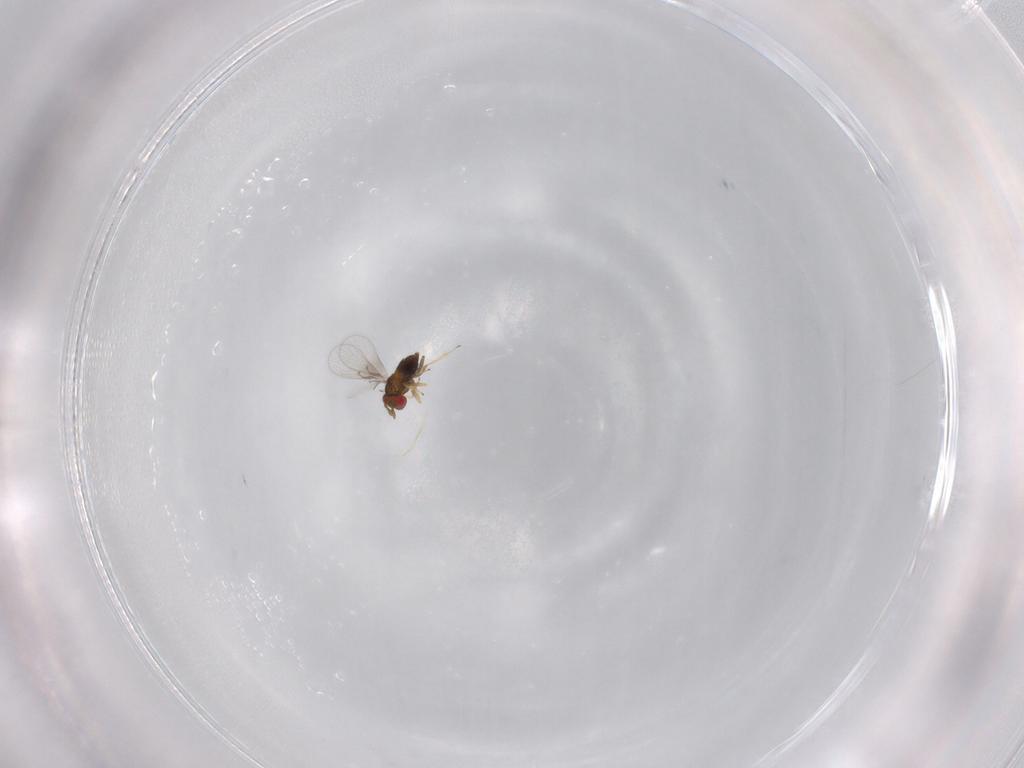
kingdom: Animalia
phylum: Arthropoda
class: Insecta
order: Hymenoptera
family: Trichogrammatidae
